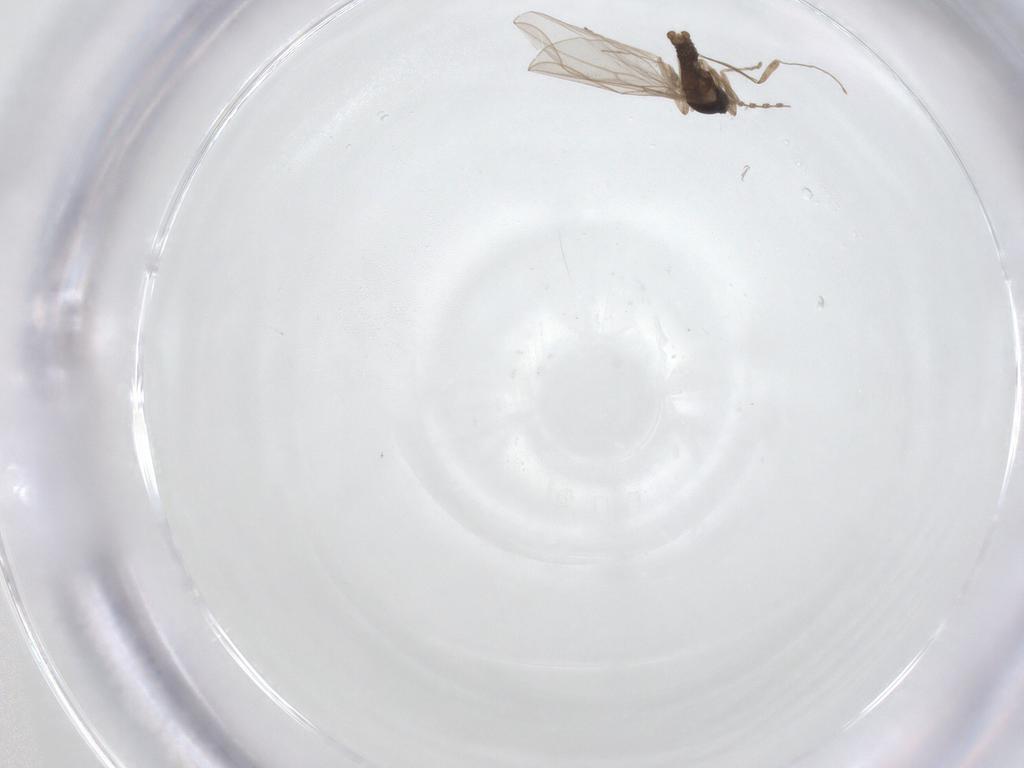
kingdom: Animalia
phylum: Arthropoda
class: Insecta
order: Diptera
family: Cecidomyiidae
